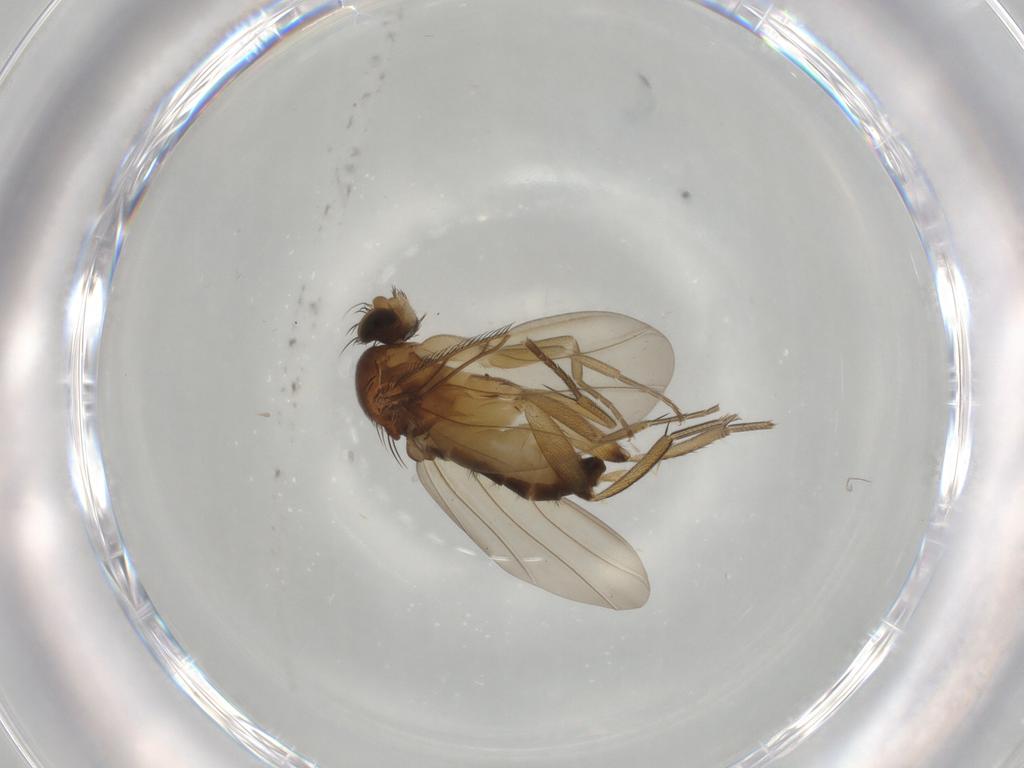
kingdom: Animalia
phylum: Arthropoda
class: Insecta
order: Diptera
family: Phoridae
